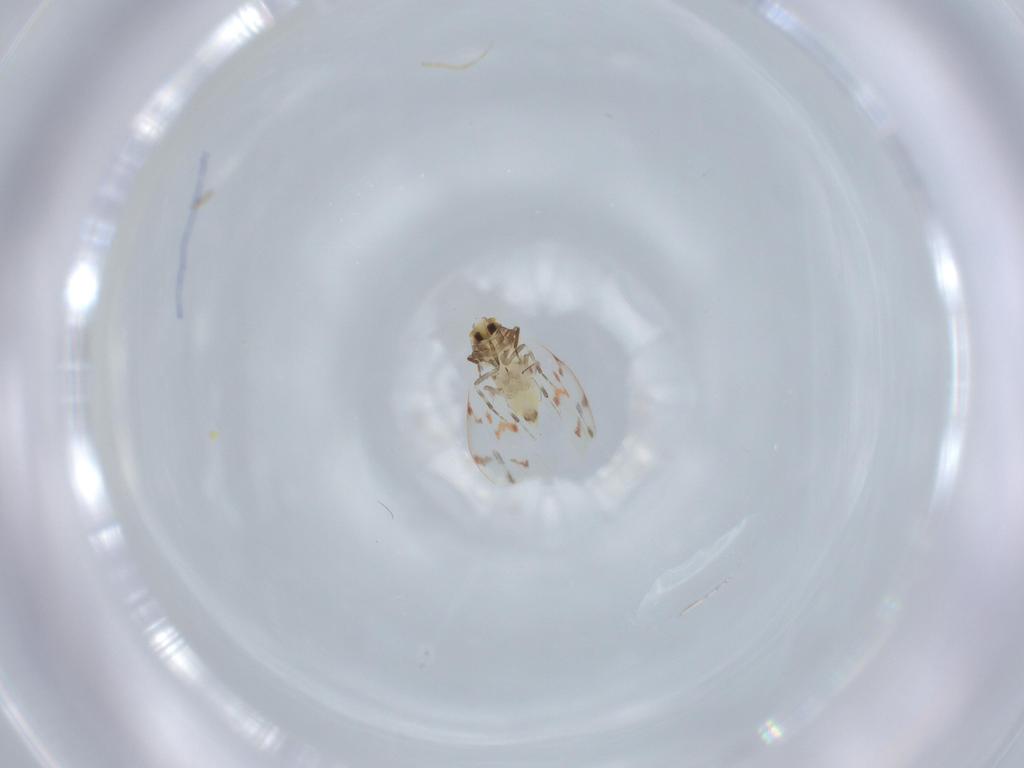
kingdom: Animalia
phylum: Arthropoda
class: Insecta
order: Hemiptera
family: Aleyrodidae
